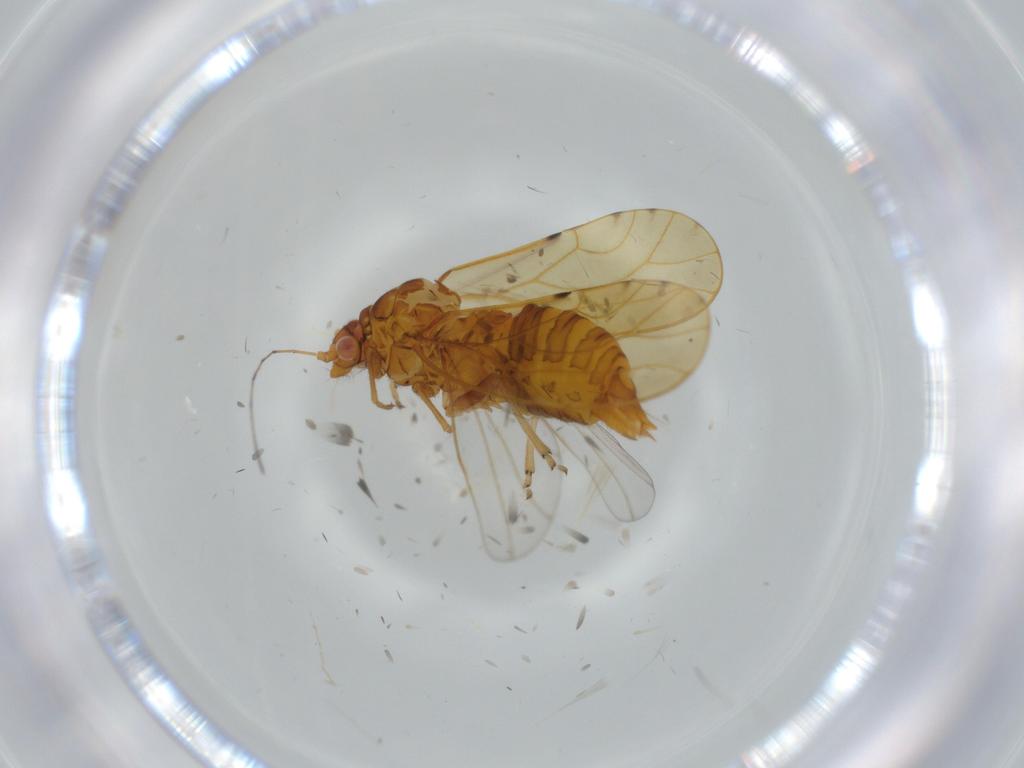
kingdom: Animalia
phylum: Arthropoda
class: Insecta
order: Hemiptera
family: Psylloidea_incertae_sedis
